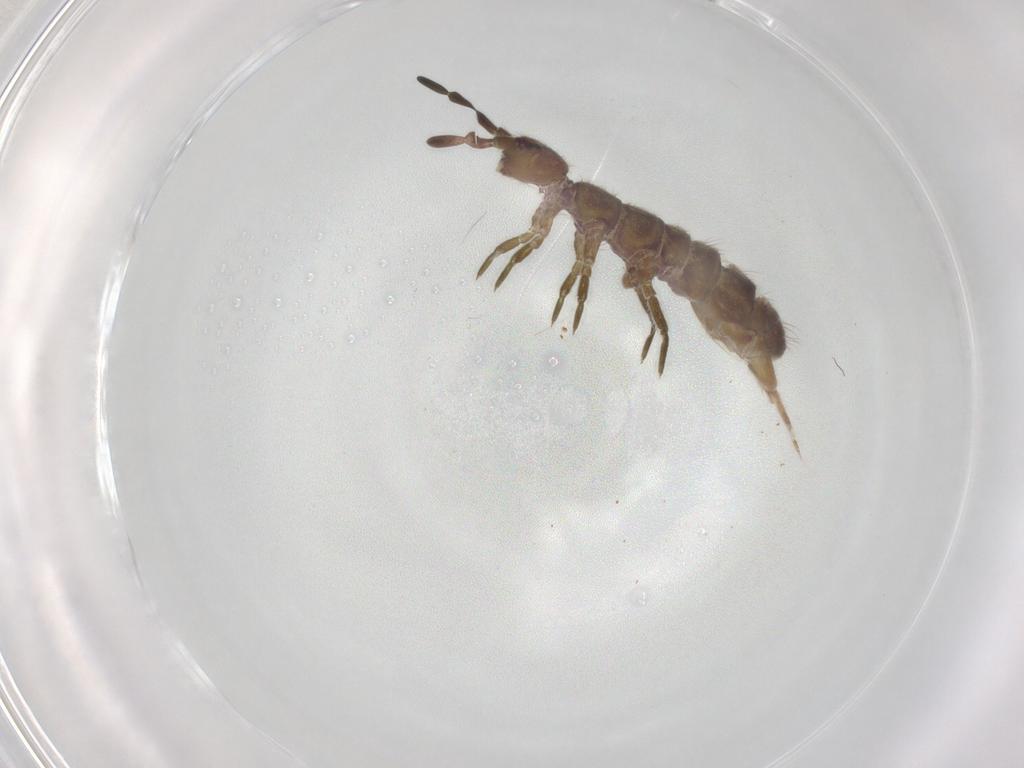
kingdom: Animalia
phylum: Arthropoda
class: Collembola
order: Entomobryomorpha
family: Isotomidae
